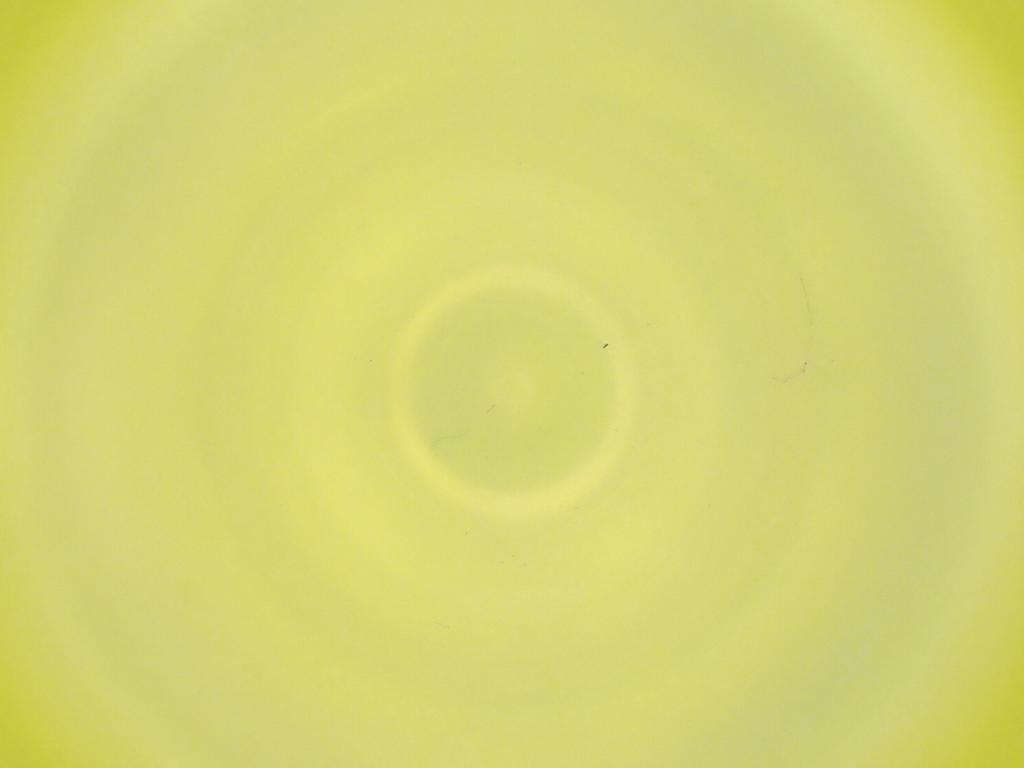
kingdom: Animalia
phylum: Arthropoda
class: Insecta
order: Diptera
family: Cecidomyiidae
